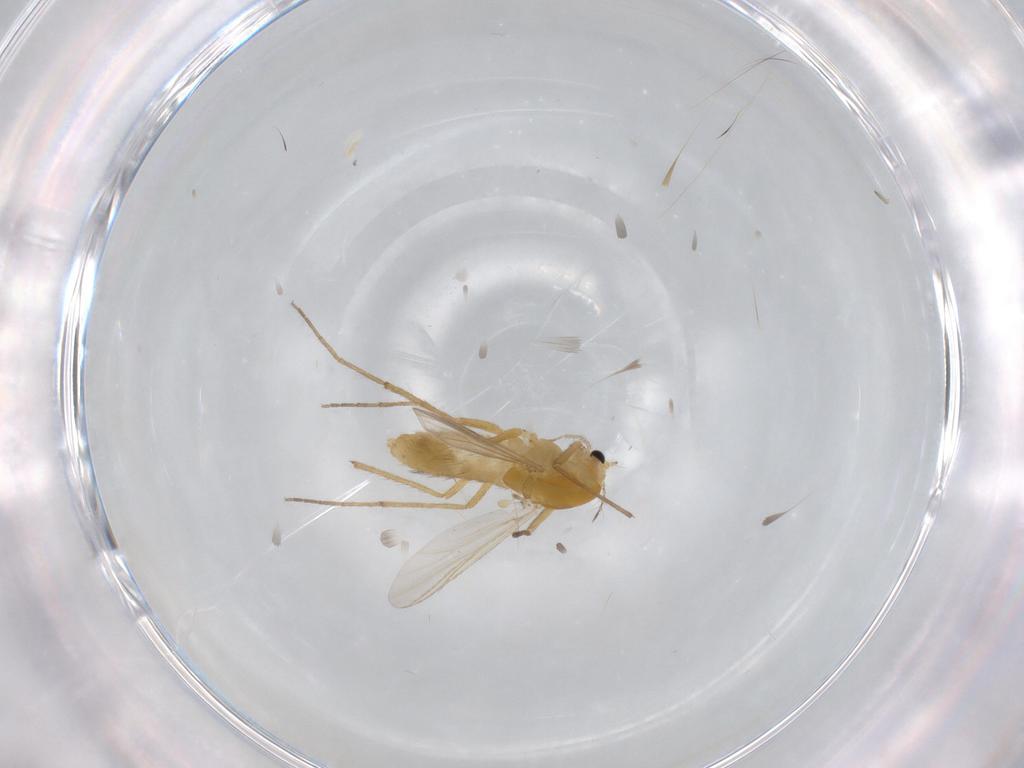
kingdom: Animalia
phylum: Arthropoda
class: Insecta
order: Diptera
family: Chironomidae
